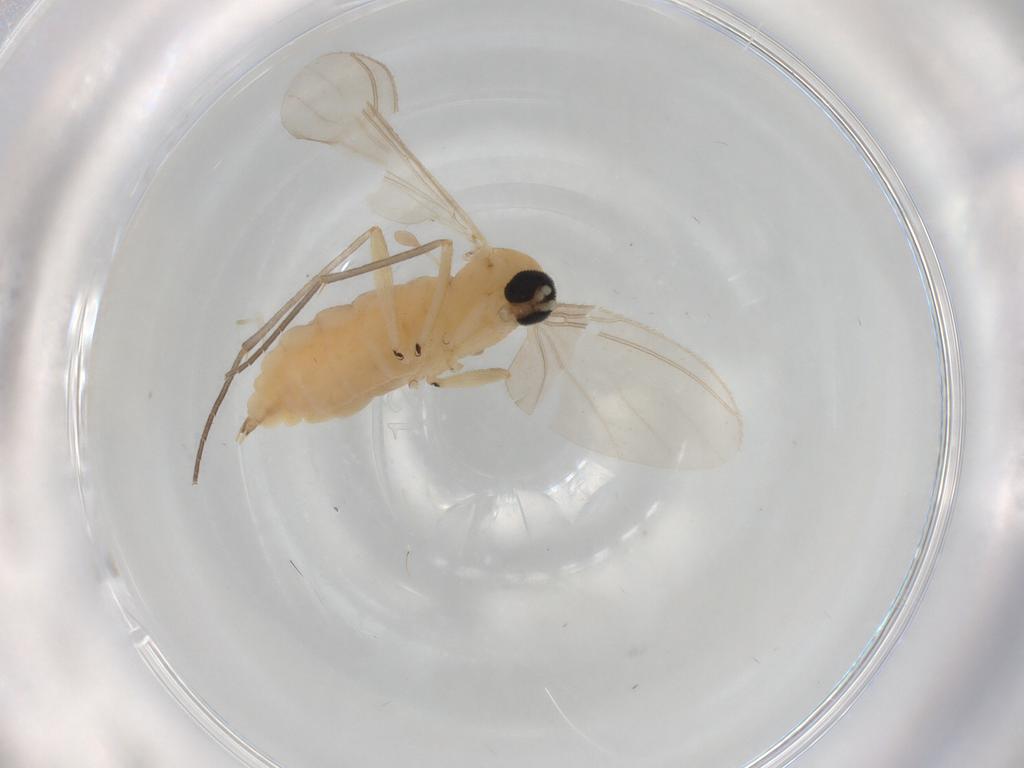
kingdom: Animalia
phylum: Arthropoda
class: Insecta
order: Diptera
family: Sciaridae
